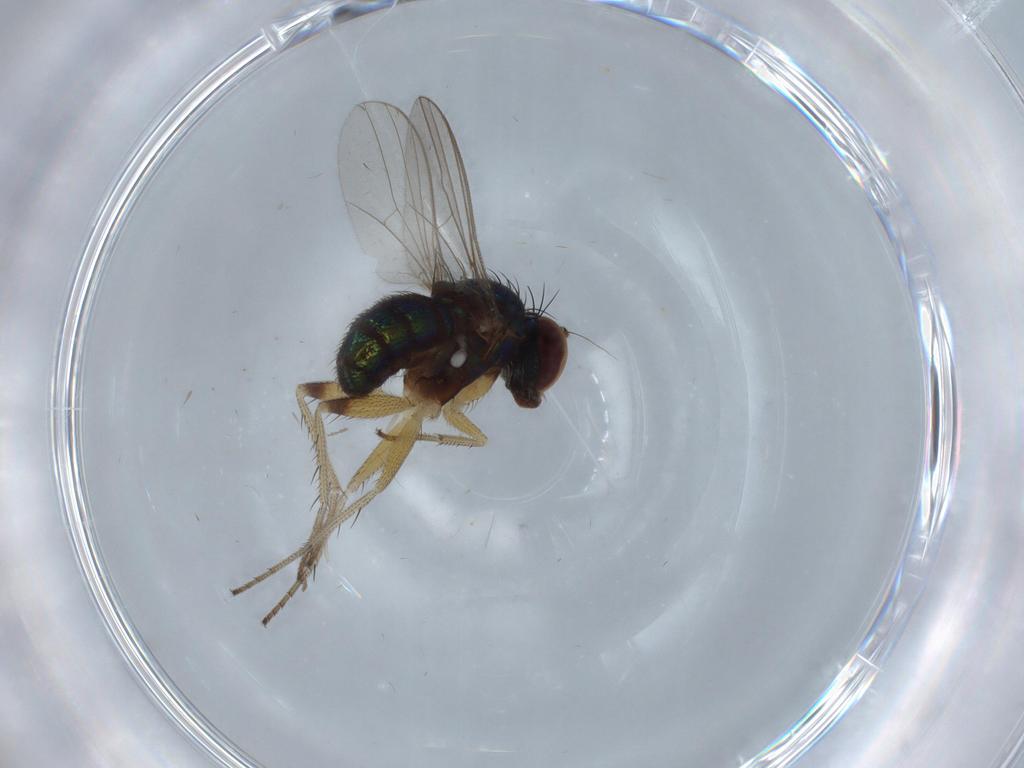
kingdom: Animalia
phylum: Arthropoda
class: Insecta
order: Diptera
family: Psychodidae
